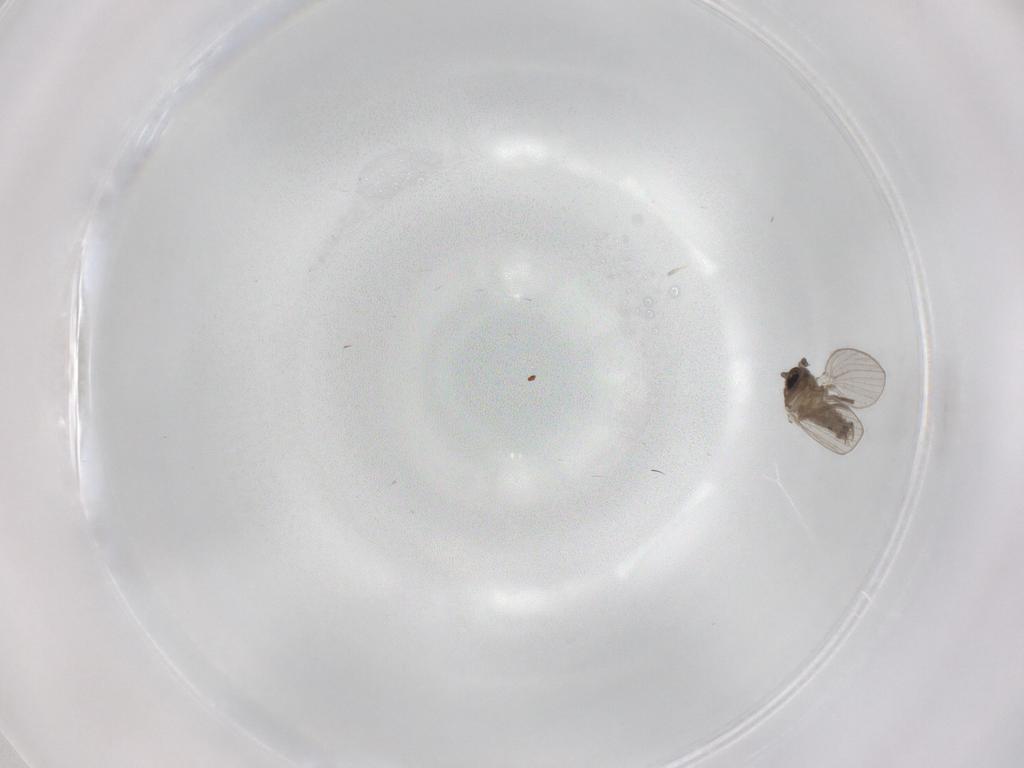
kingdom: Animalia
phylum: Arthropoda
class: Insecta
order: Diptera
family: Psychodidae
